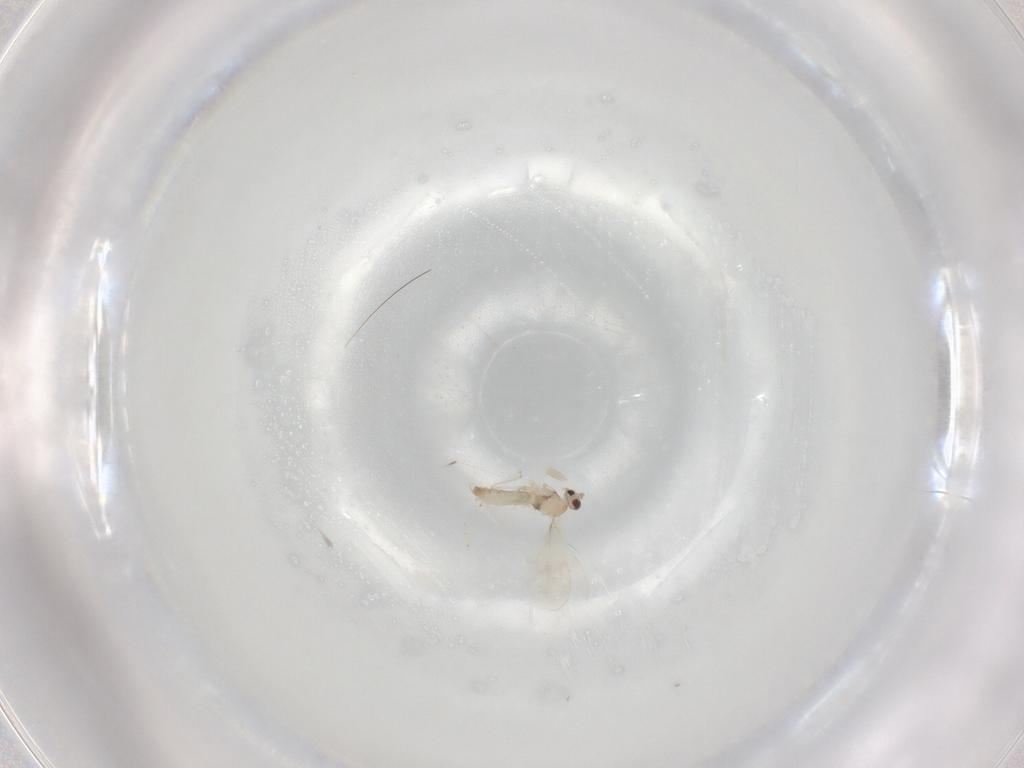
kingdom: Animalia
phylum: Arthropoda
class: Insecta
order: Diptera
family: Cecidomyiidae
